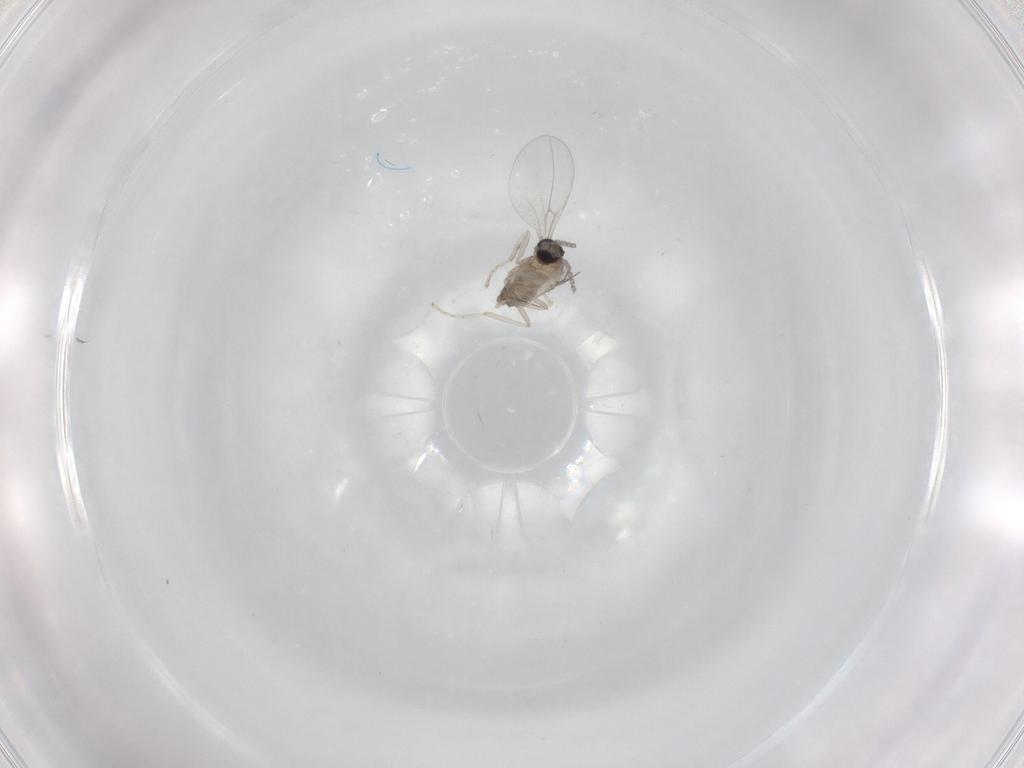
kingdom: Animalia
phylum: Arthropoda
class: Insecta
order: Diptera
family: Cecidomyiidae
